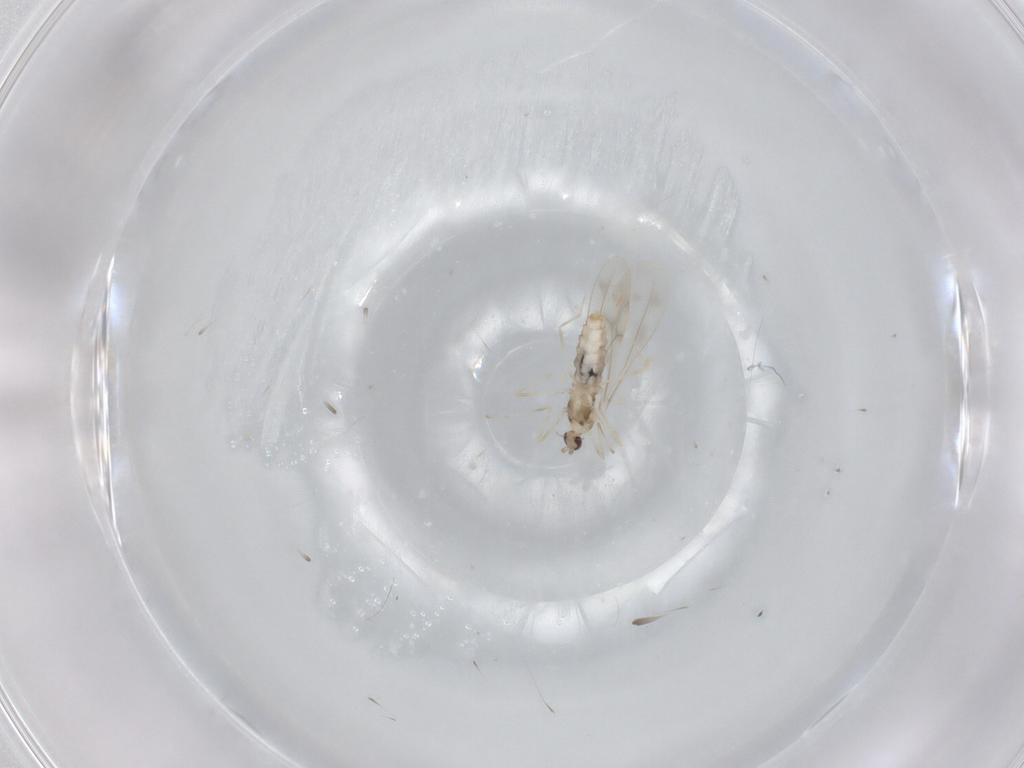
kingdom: Animalia
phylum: Arthropoda
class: Insecta
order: Diptera
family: Cecidomyiidae
